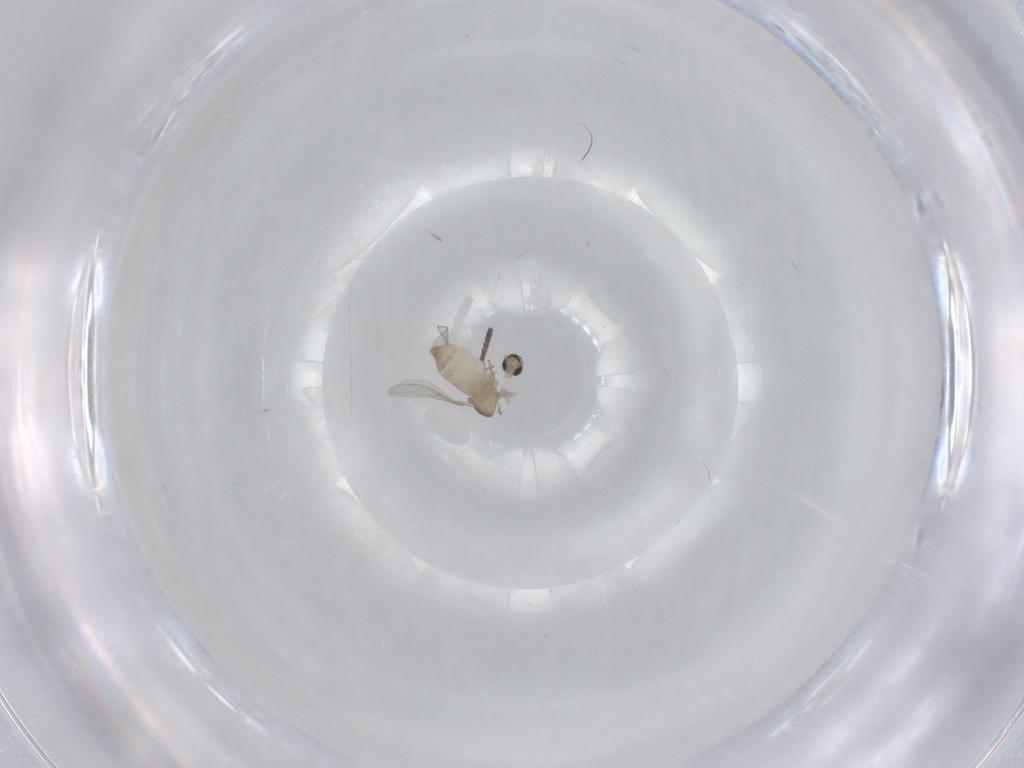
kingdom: Animalia
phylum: Arthropoda
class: Insecta
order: Diptera
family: Cecidomyiidae
